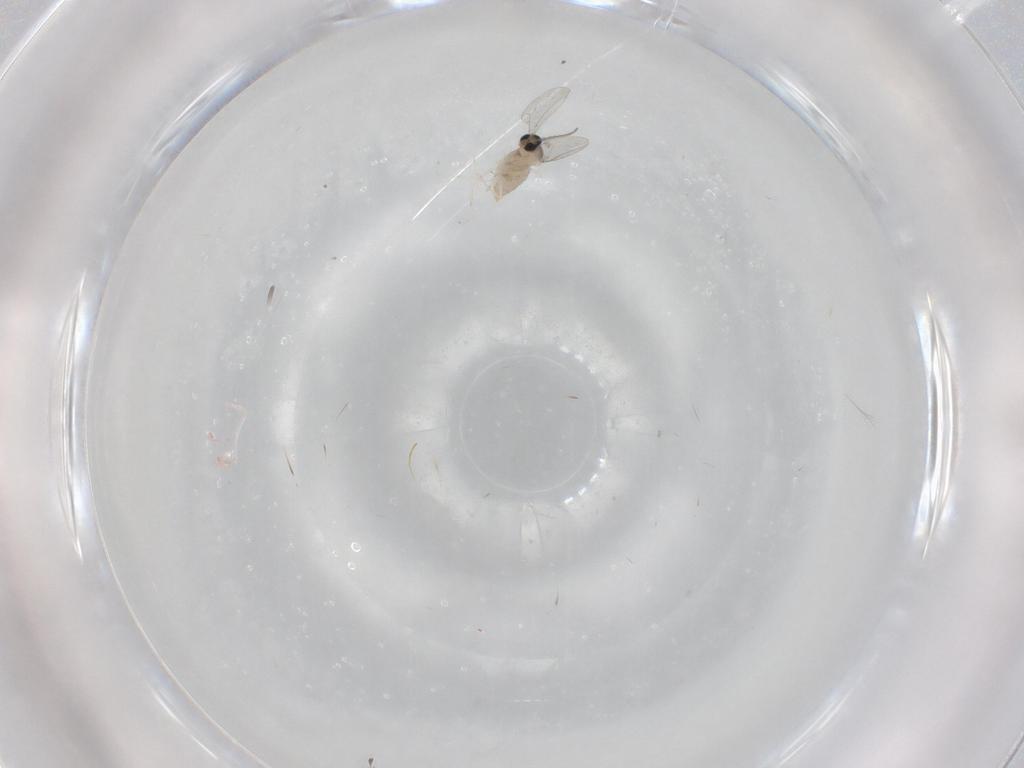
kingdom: Animalia
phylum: Arthropoda
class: Insecta
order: Diptera
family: Cecidomyiidae
